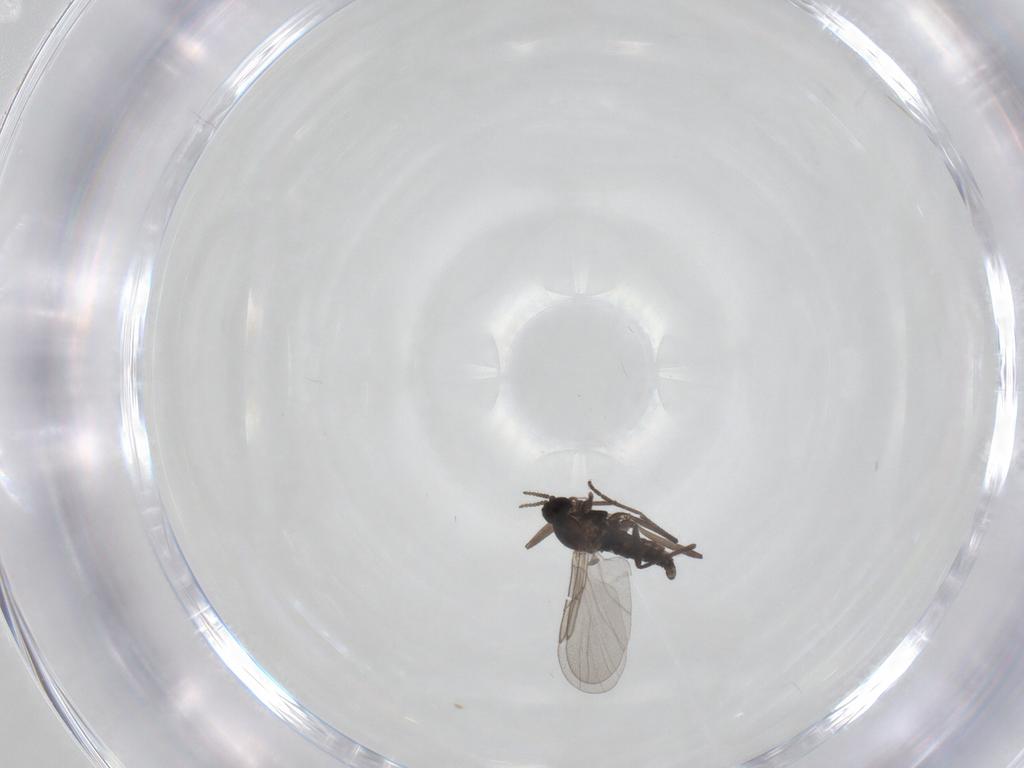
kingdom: Animalia
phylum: Arthropoda
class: Insecta
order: Diptera
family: Cecidomyiidae
